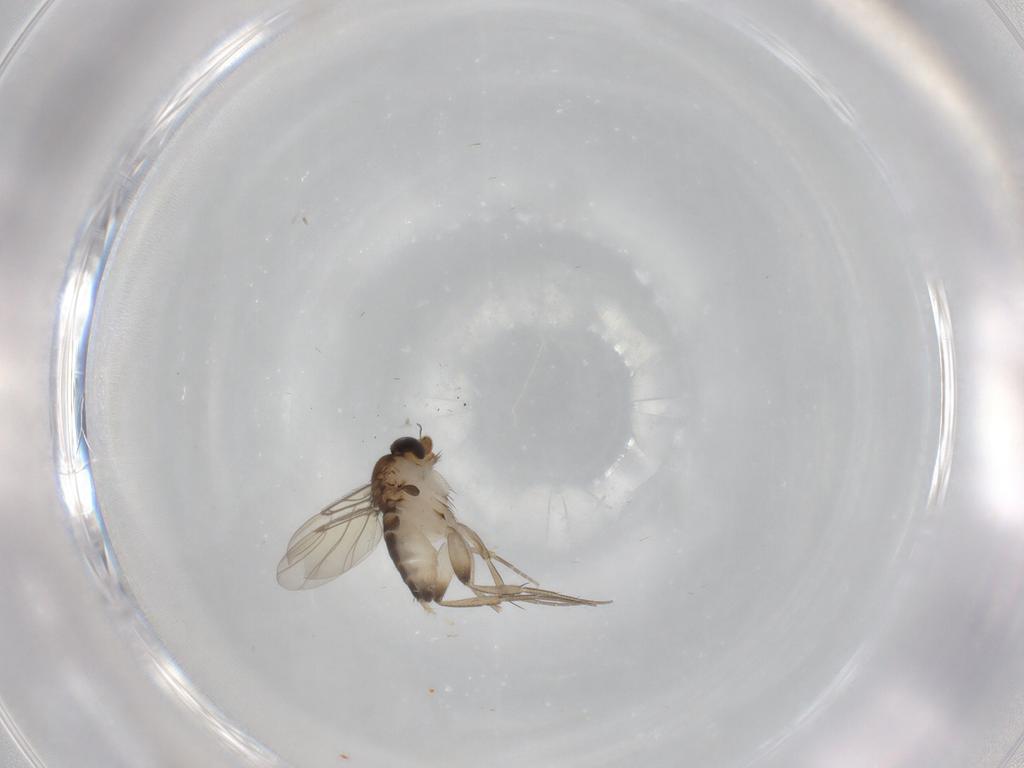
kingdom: Animalia
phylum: Arthropoda
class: Insecta
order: Diptera
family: Phoridae
